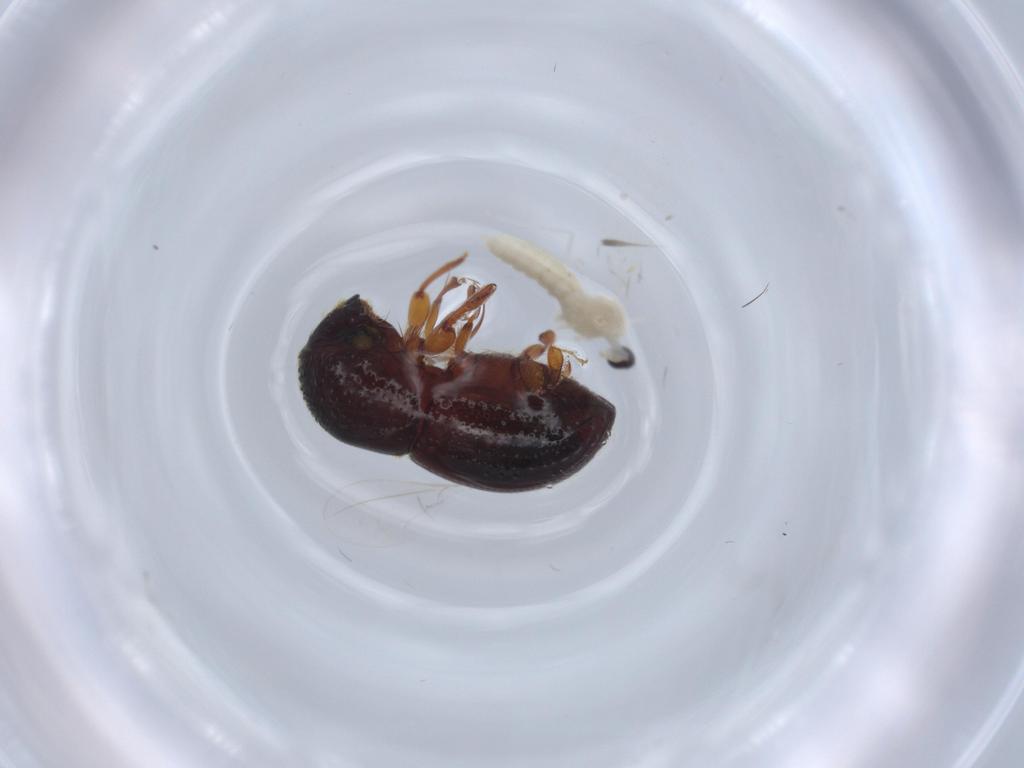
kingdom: Animalia
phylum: Arthropoda
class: Insecta
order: Diptera
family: Cecidomyiidae
